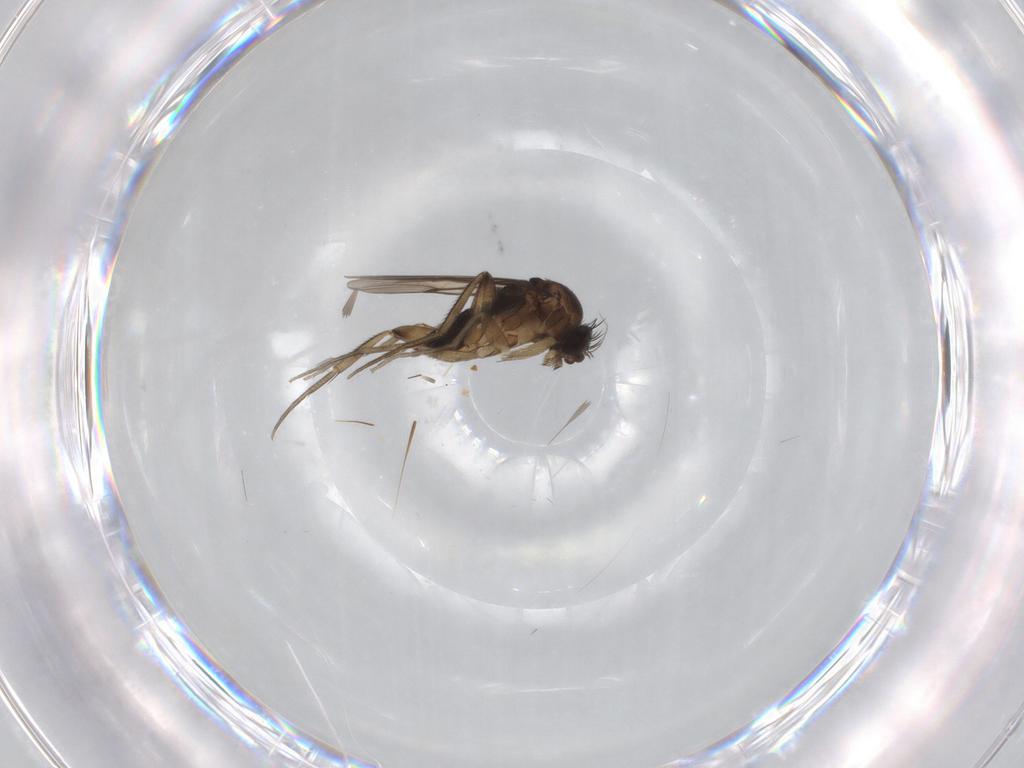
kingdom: Animalia
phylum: Arthropoda
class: Insecta
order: Diptera
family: Phoridae
